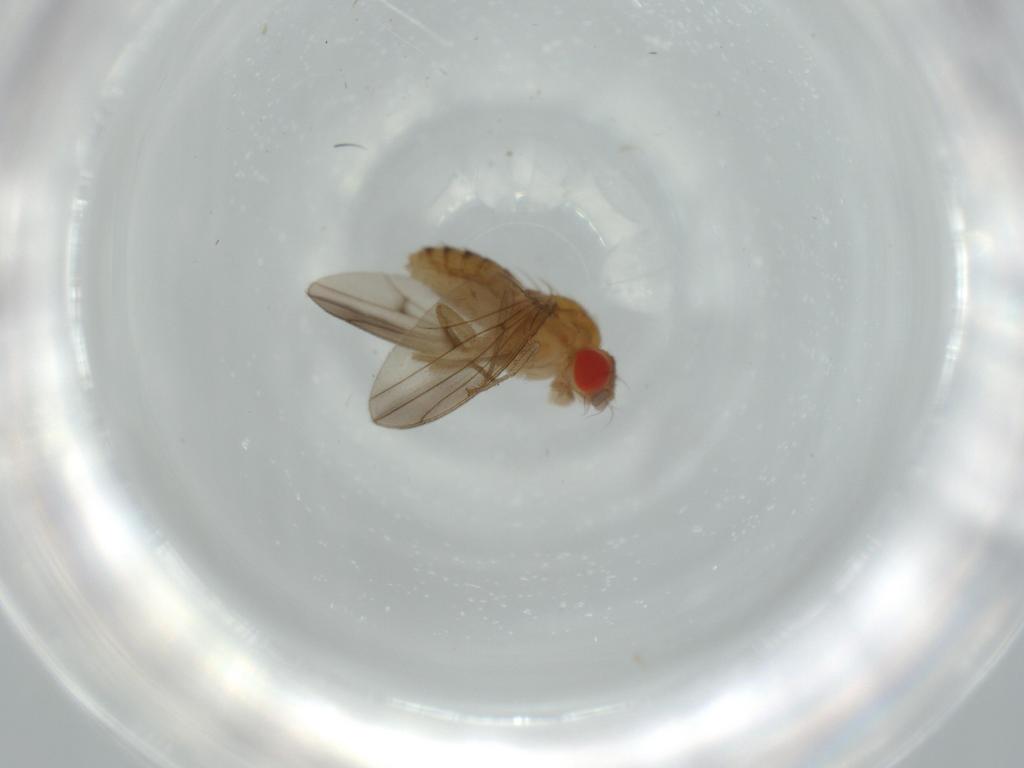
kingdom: Animalia
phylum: Arthropoda
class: Insecta
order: Diptera
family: Drosophilidae
